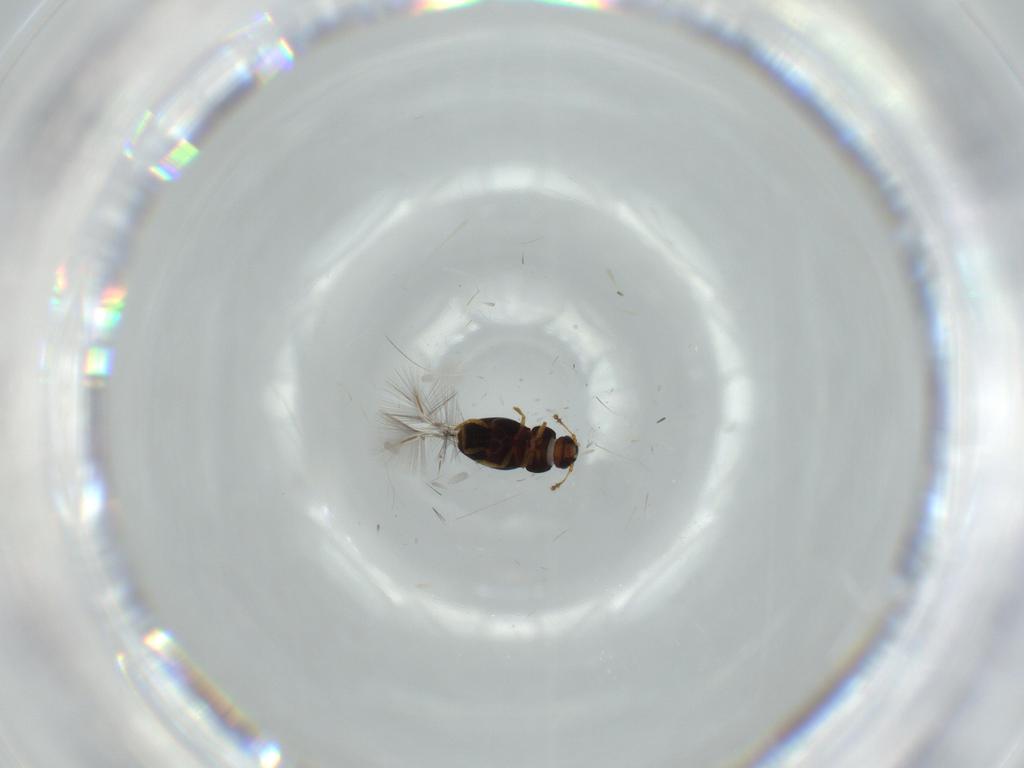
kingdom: Animalia
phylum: Arthropoda
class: Insecta
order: Coleoptera
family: Ptiliidae
